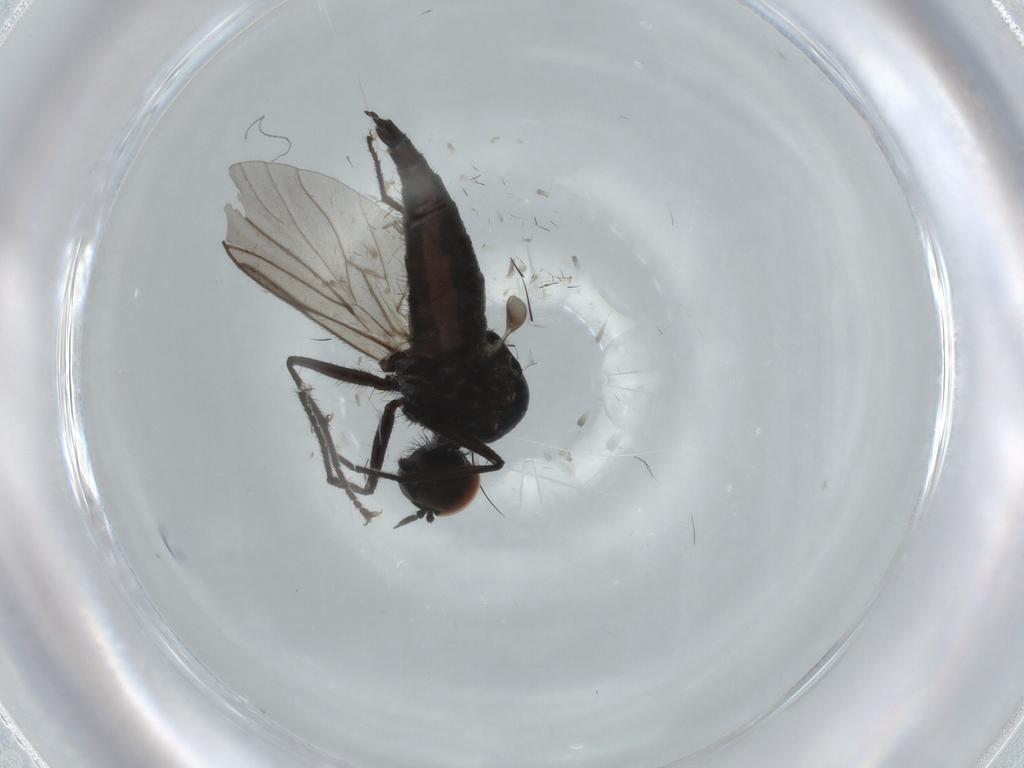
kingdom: Animalia
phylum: Arthropoda
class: Insecta
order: Diptera
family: Hybotidae
